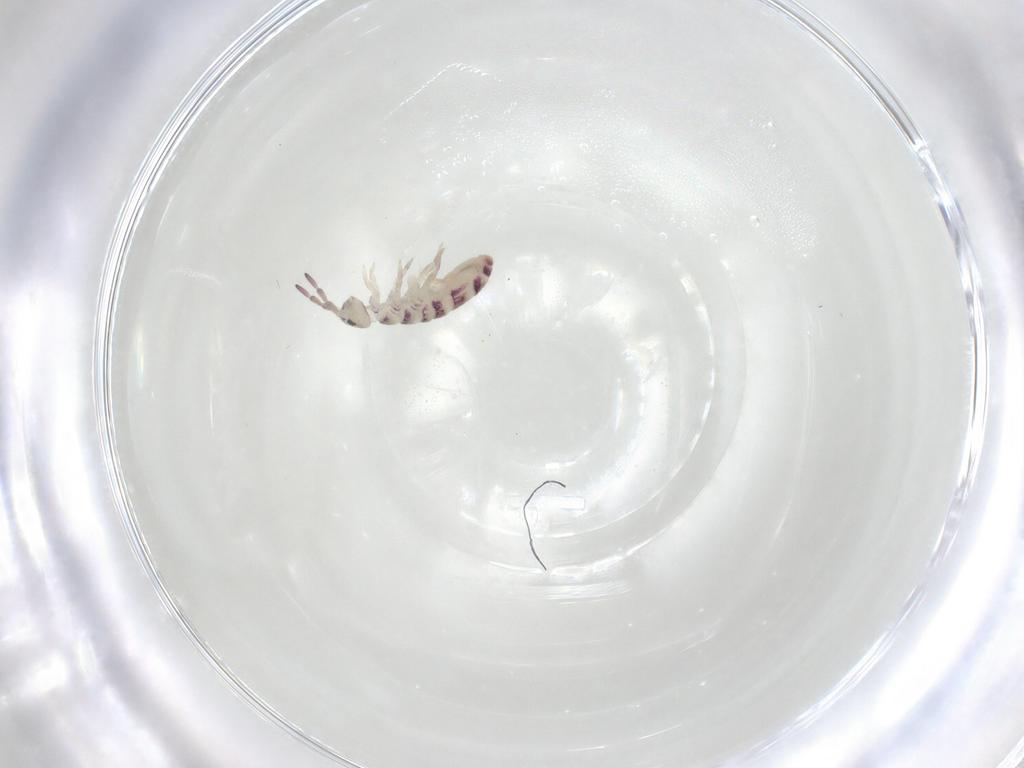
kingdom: Animalia
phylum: Arthropoda
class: Collembola
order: Entomobryomorpha
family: Isotomidae
